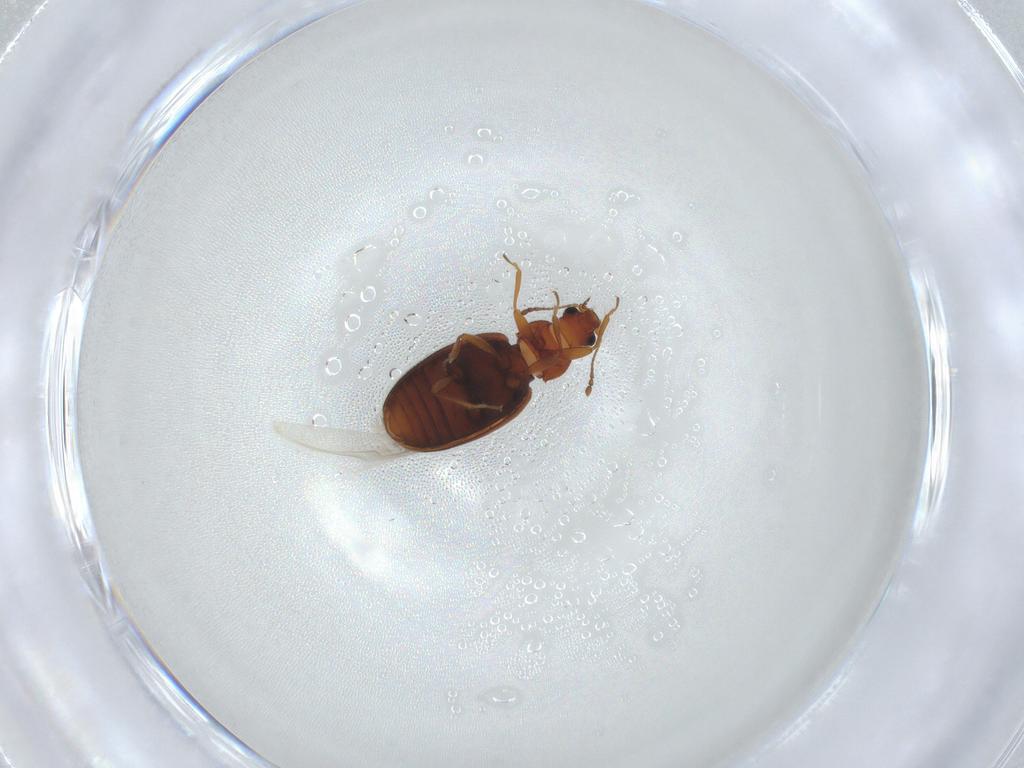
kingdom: Animalia
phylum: Arthropoda
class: Insecta
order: Coleoptera
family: Latridiidae
